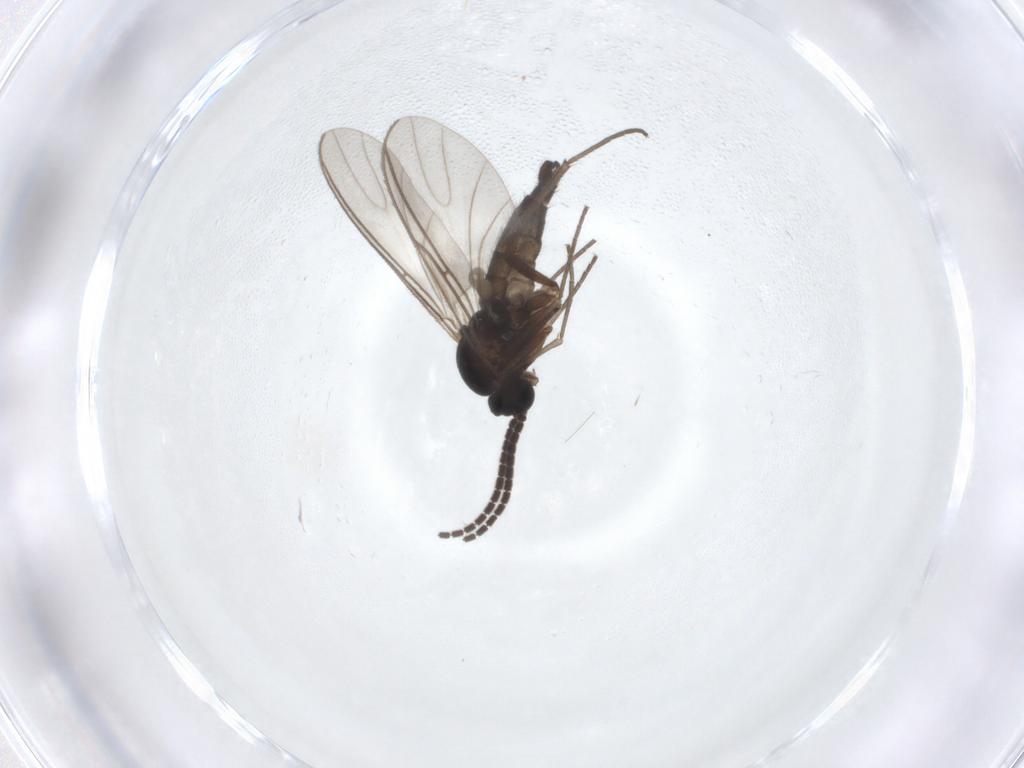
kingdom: Animalia
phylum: Arthropoda
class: Insecta
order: Diptera
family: Sciaridae
